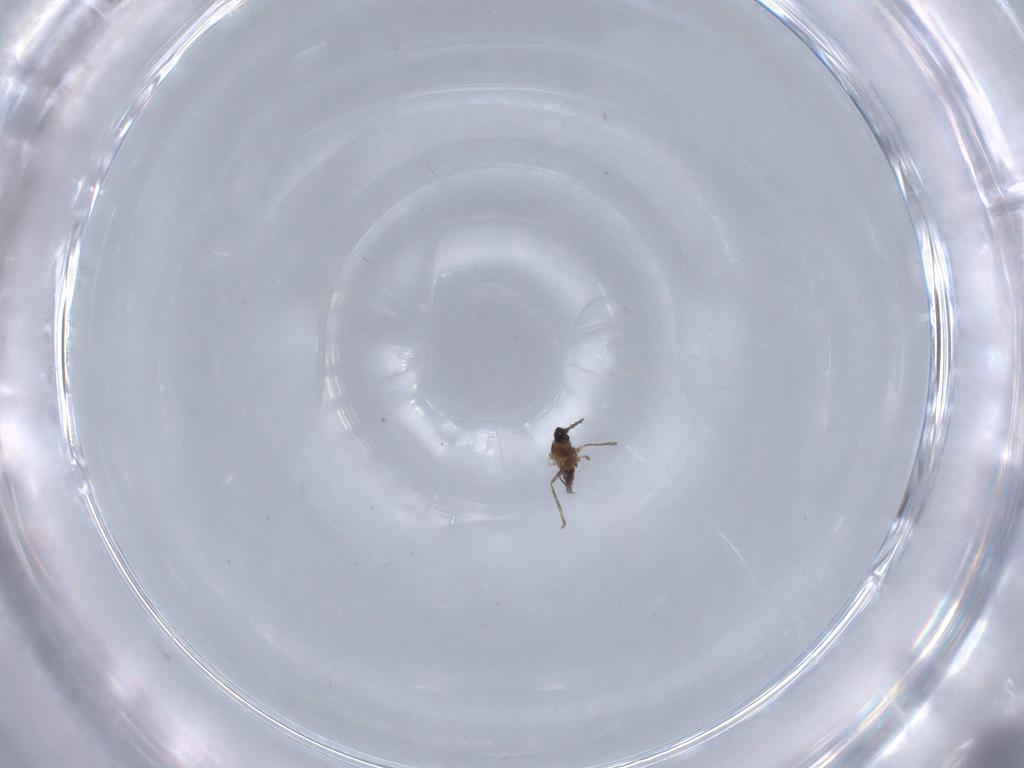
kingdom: Animalia
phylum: Arthropoda
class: Insecta
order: Diptera
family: Cecidomyiidae
